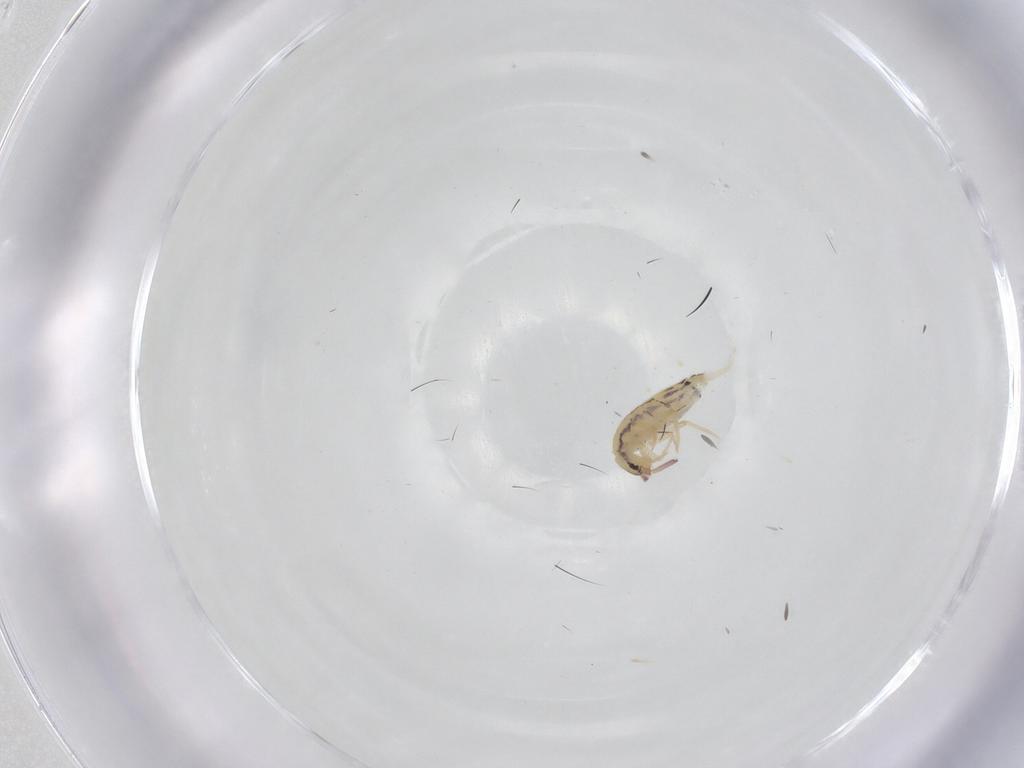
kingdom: Animalia
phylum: Arthropoda
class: Collembola
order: Entomobryomorpha
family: Entomobryidae
